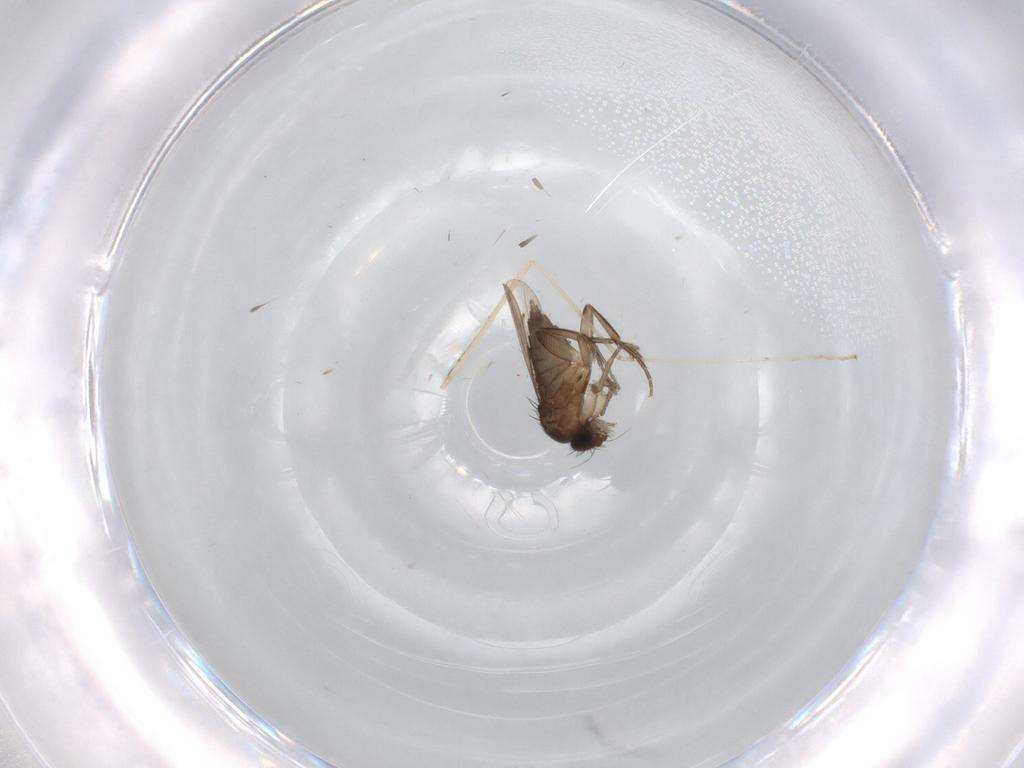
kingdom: Animalia
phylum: Arthropoda
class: Insecta
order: Diptera
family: Phoridae
